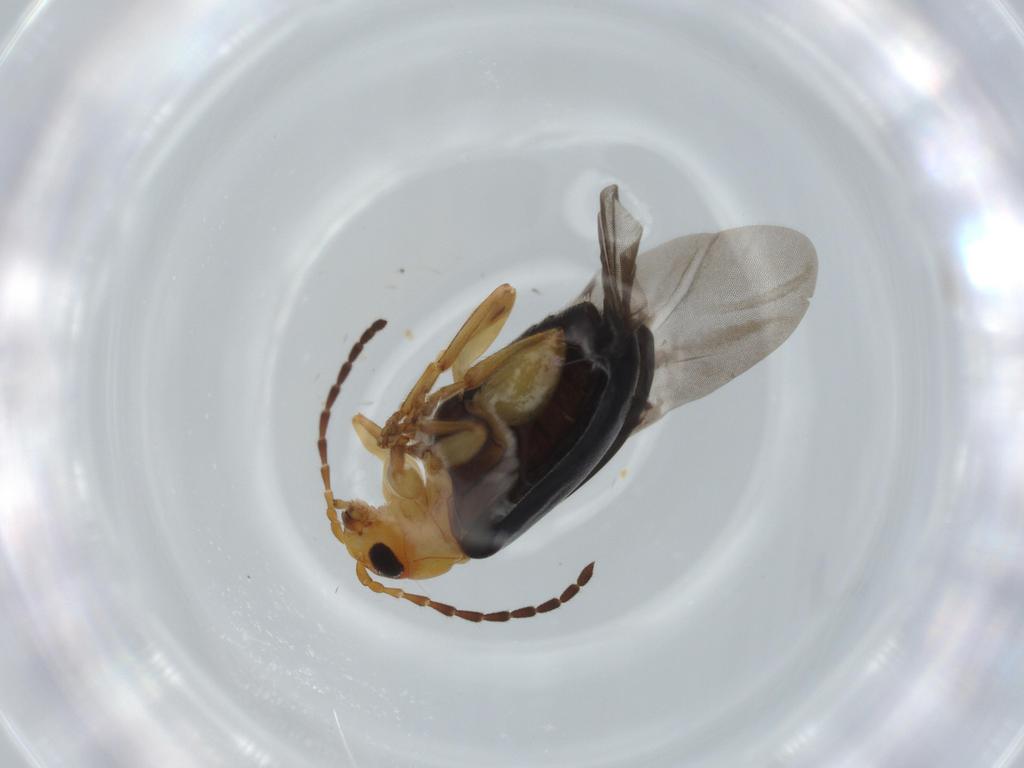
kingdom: Animalia
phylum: Arthropoda
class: Insecta
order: Coleoptera
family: Chrysomelidae
